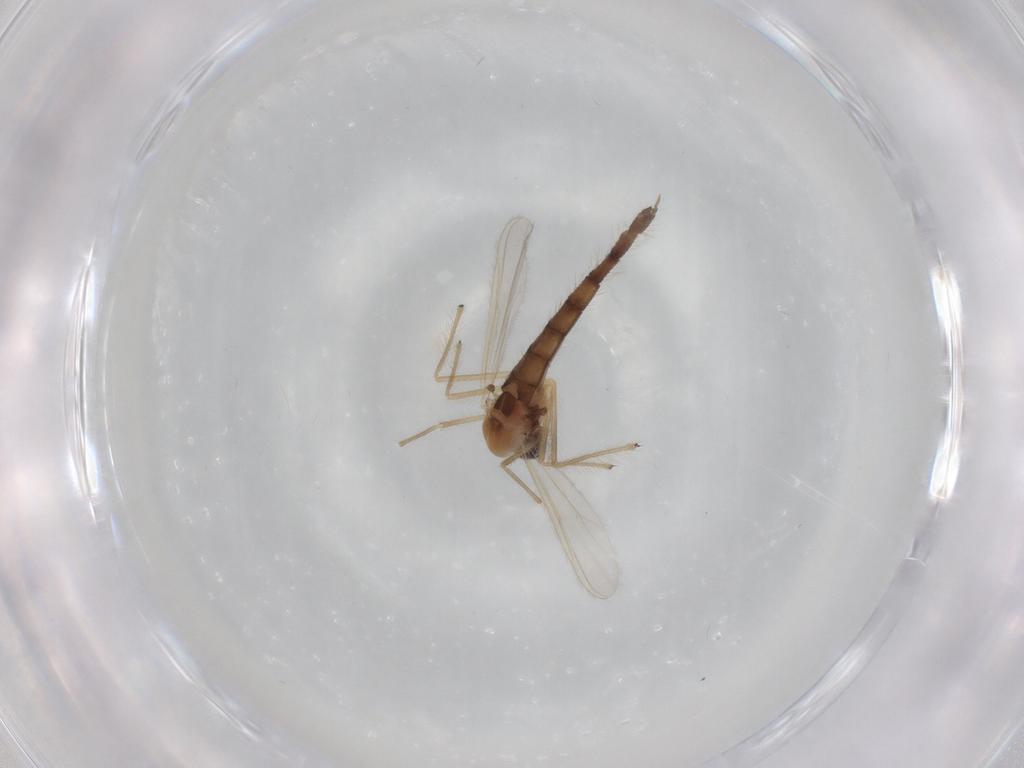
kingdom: Animalia
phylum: Arthropoda
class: Insecta
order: Diptera
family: Chironomidae
